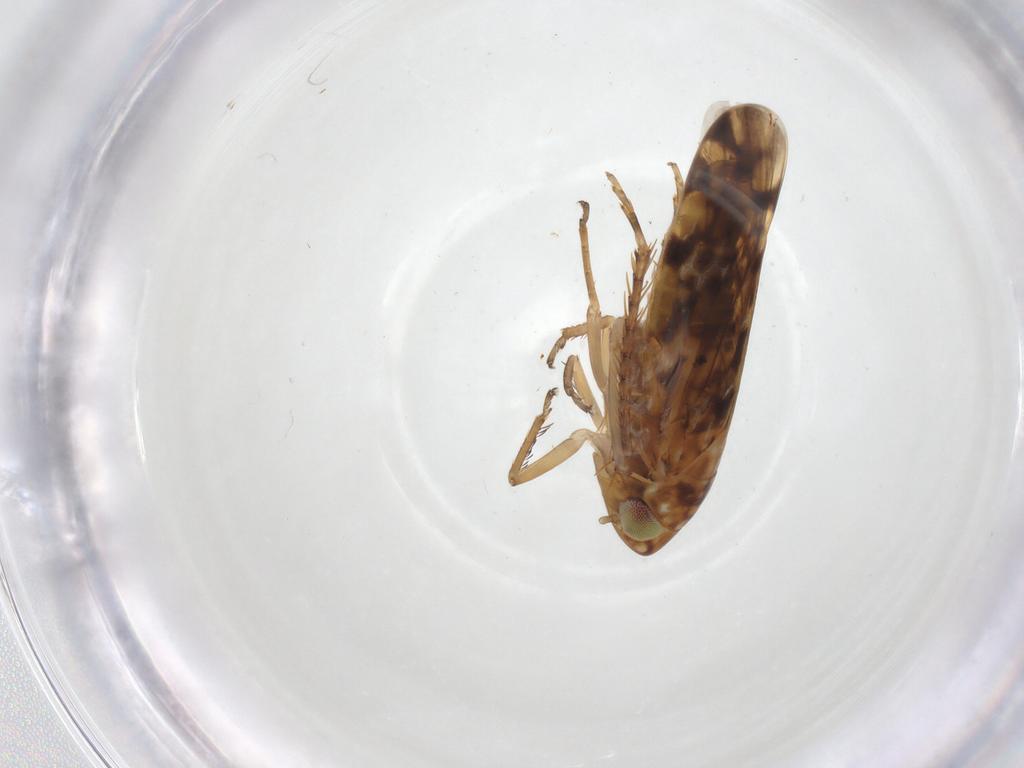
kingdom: Animalia
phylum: Arthropoda
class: Insecta
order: Hemiptera
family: Cicadellidae
